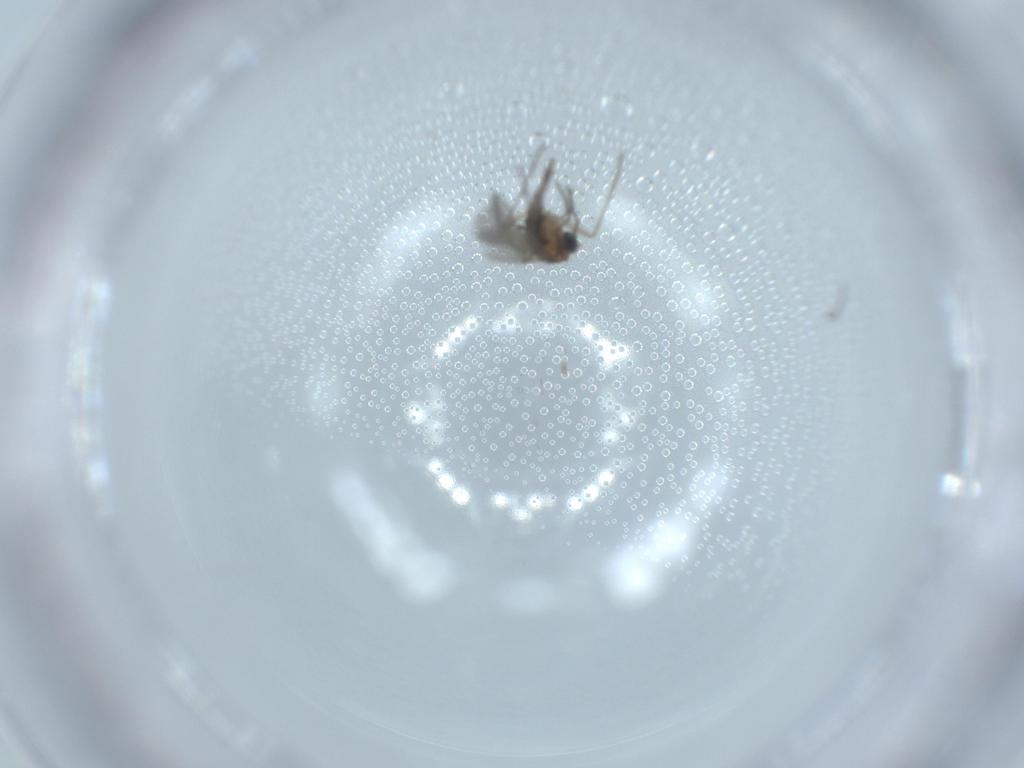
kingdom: Animalia
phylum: Arthropoda
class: Insecta
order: Diptera
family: Sciaridae
